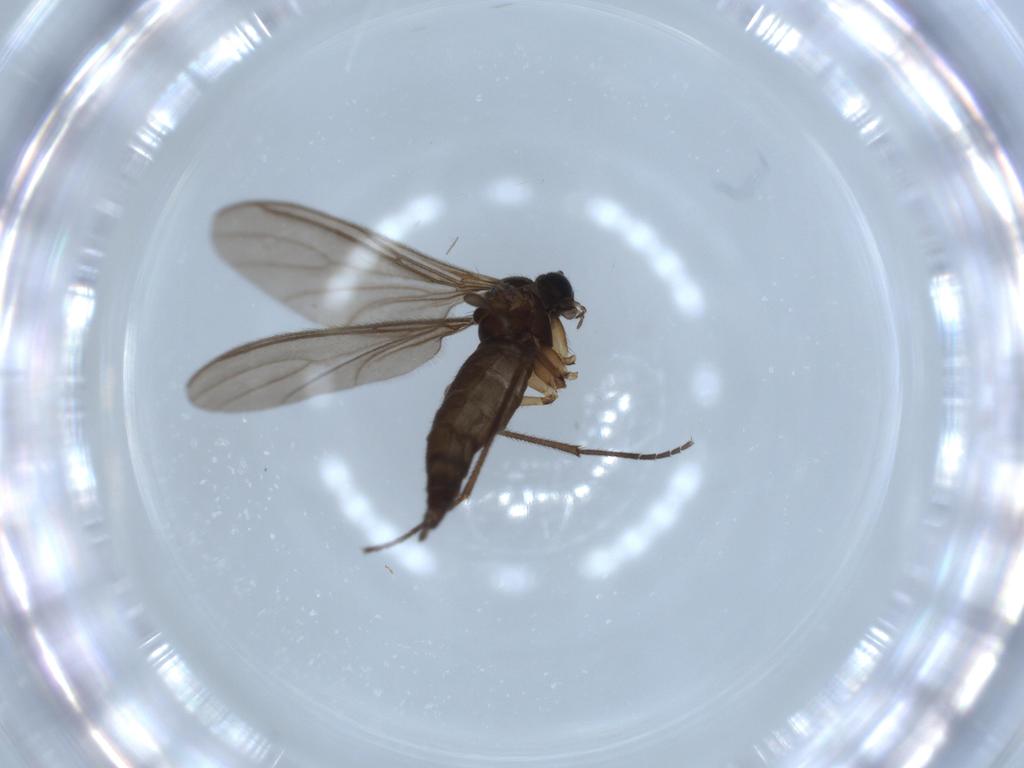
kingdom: Animalia
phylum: Arthropoda
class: Insecta
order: Diptera
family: Sciaridae
